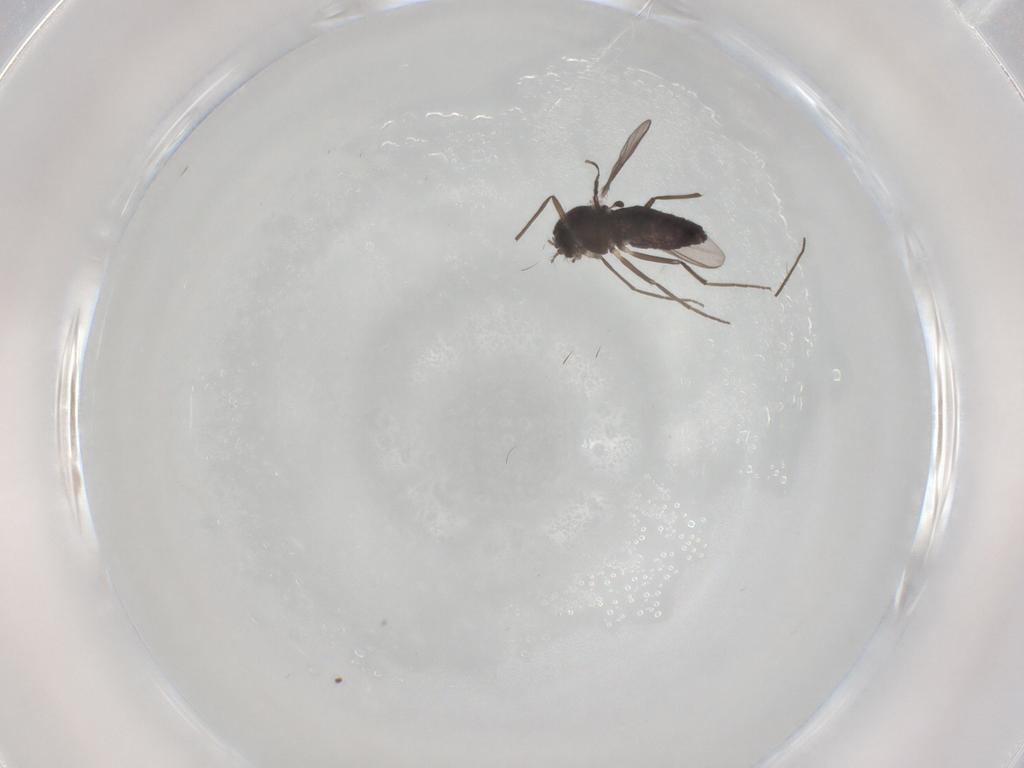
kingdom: Animalia
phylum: Arthropoda
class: Insecta
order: Diptera
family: Chironomidae
